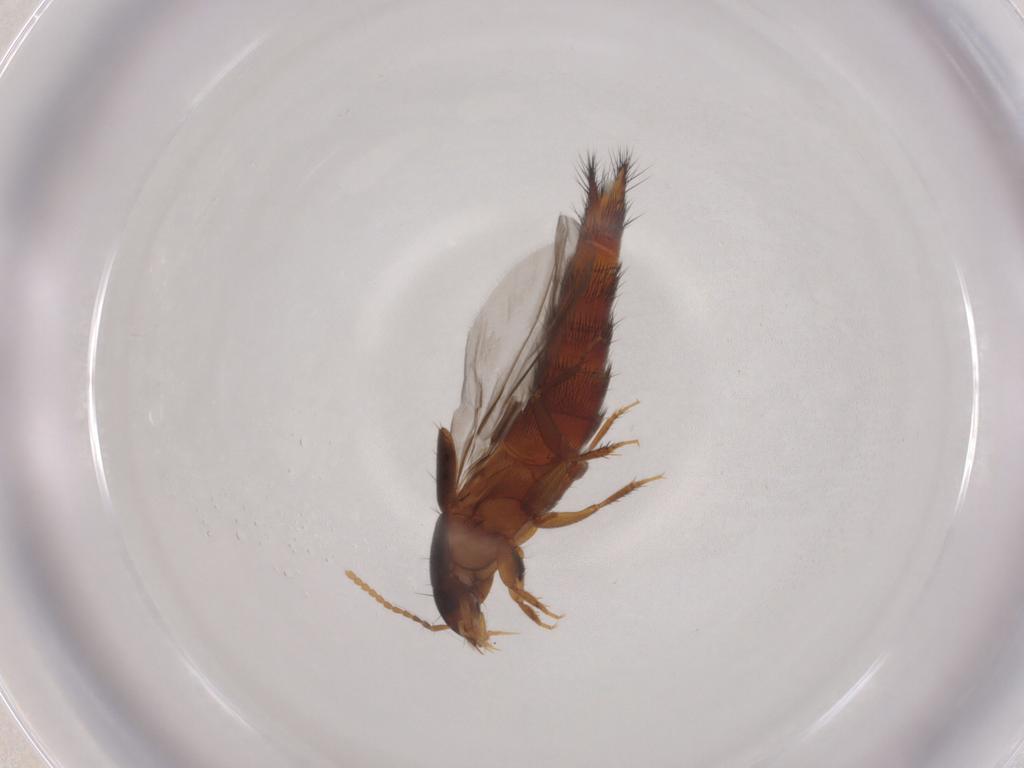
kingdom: Animalia
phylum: Arthropoda
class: Insecta
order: Coleoptera
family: Staphylinidae
